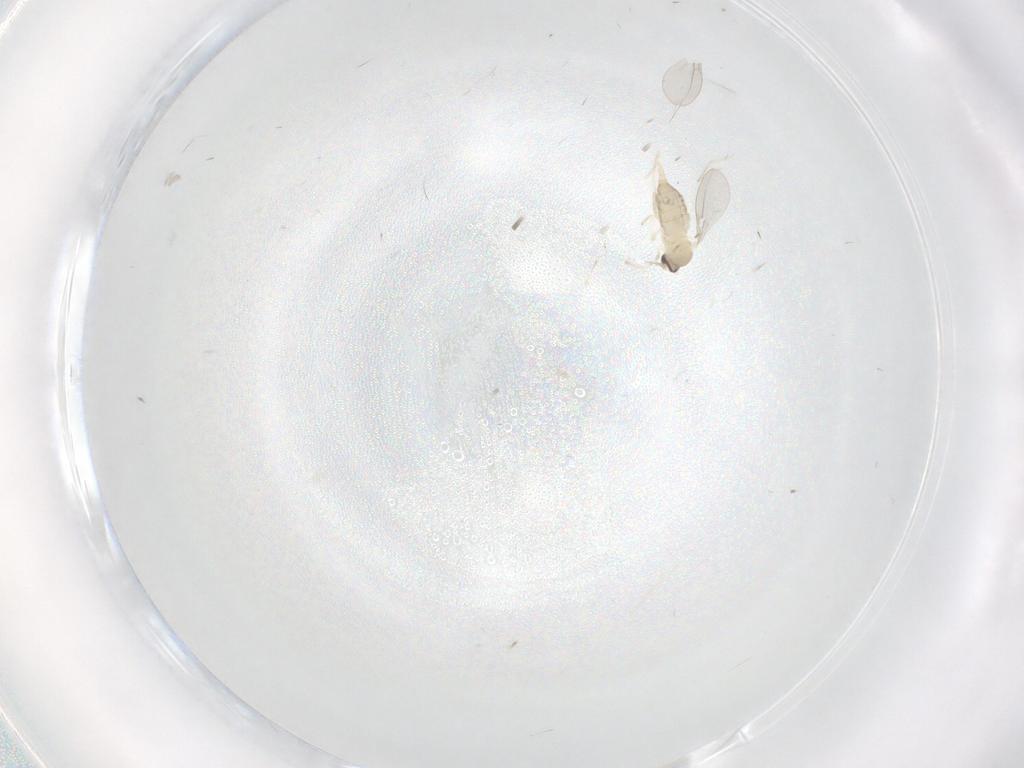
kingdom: Animalia
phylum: Arthropoda
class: Insecta
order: Diptera
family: Cecidomyiidae
